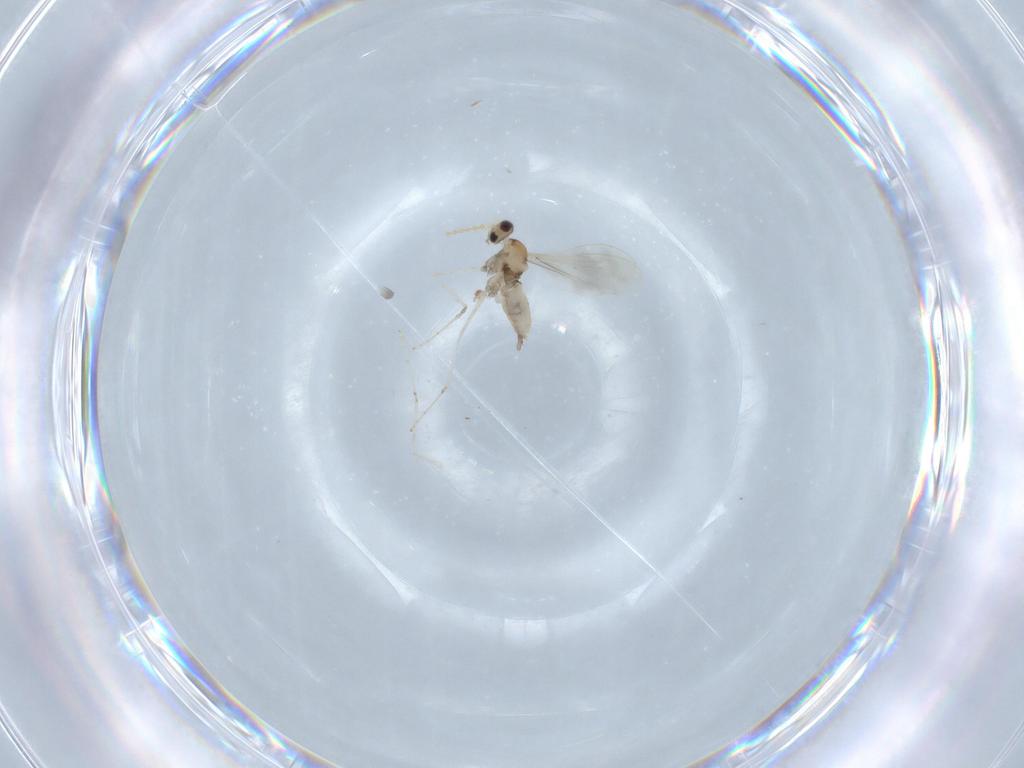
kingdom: Animalia
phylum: Arthropoda
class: Insecta
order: Diptera
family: Cecidomyiidae
